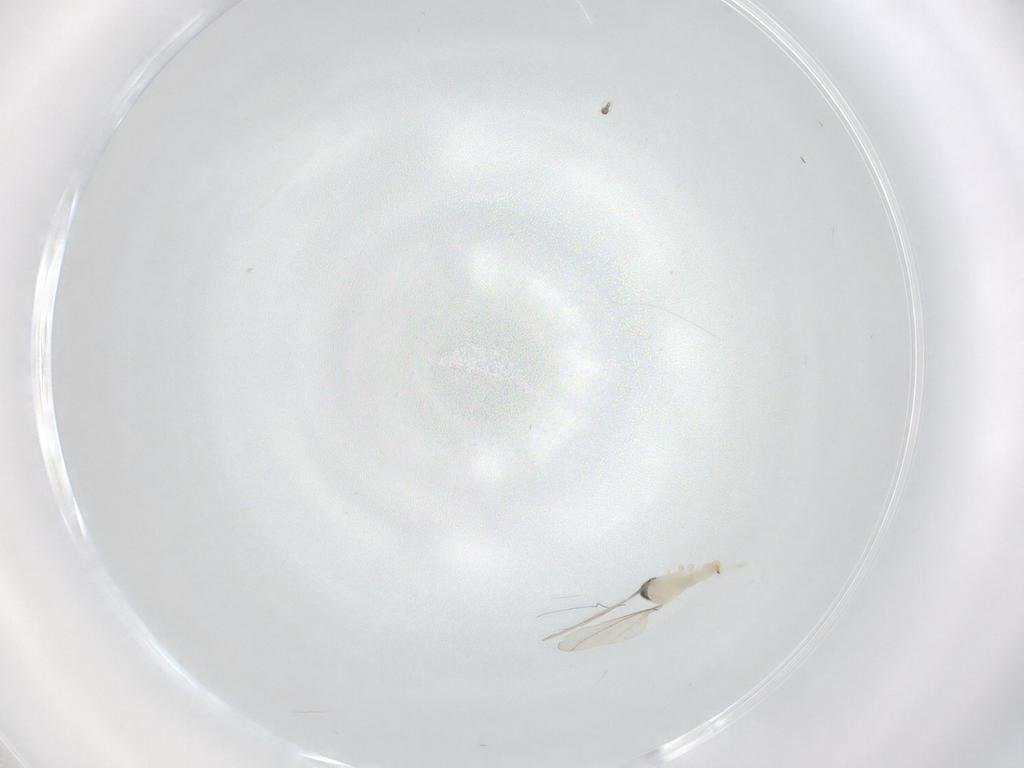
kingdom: Animalia
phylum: Arthropoda
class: Insecta
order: Diptera
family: Cecidomyiidae
